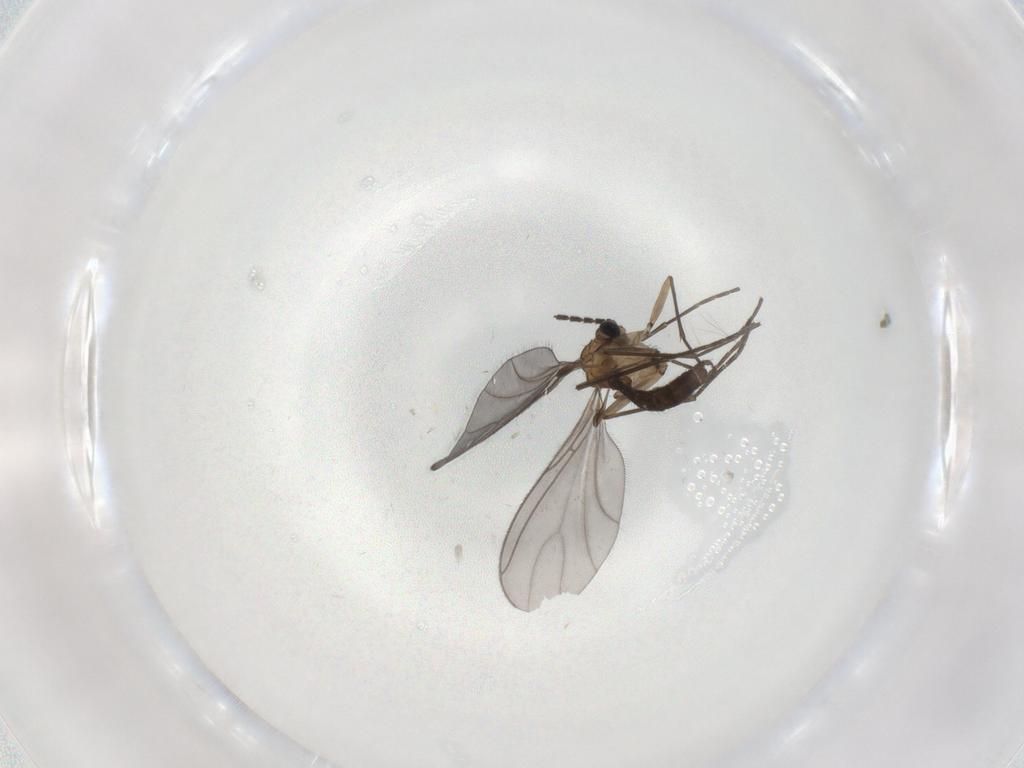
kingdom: Animalia
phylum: Arthropoda
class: Insecta
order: Diptera
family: Sciaridae
